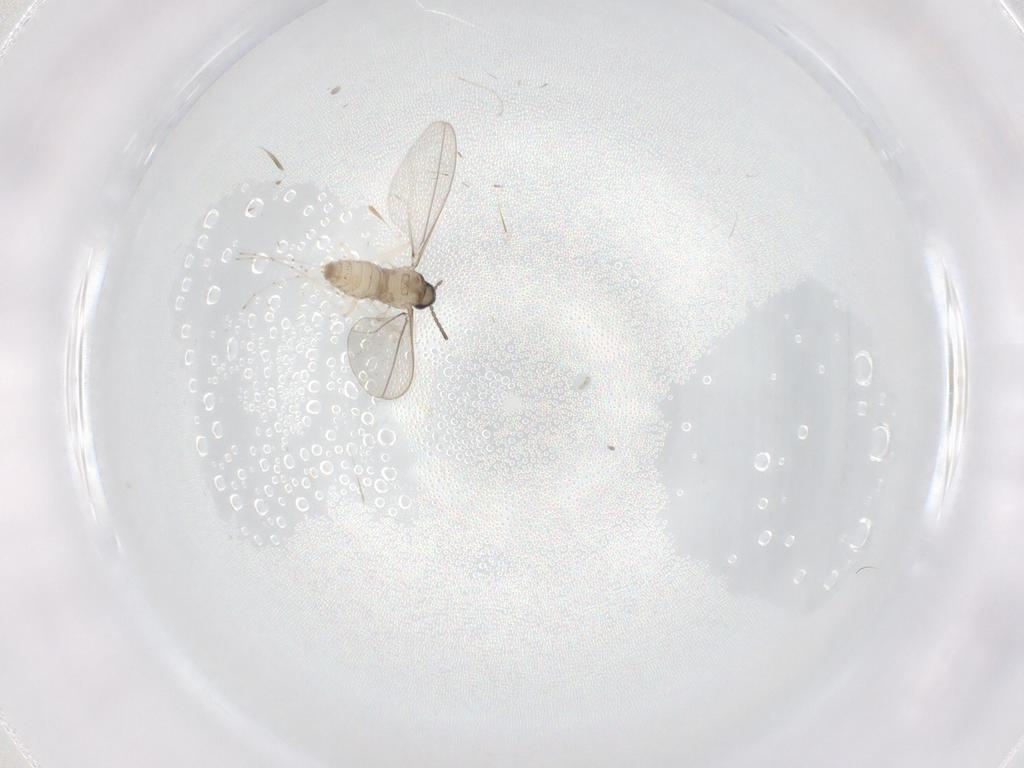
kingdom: Animalia
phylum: Arthropoda
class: Insecta
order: Diptera
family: Cecidomyiidae
